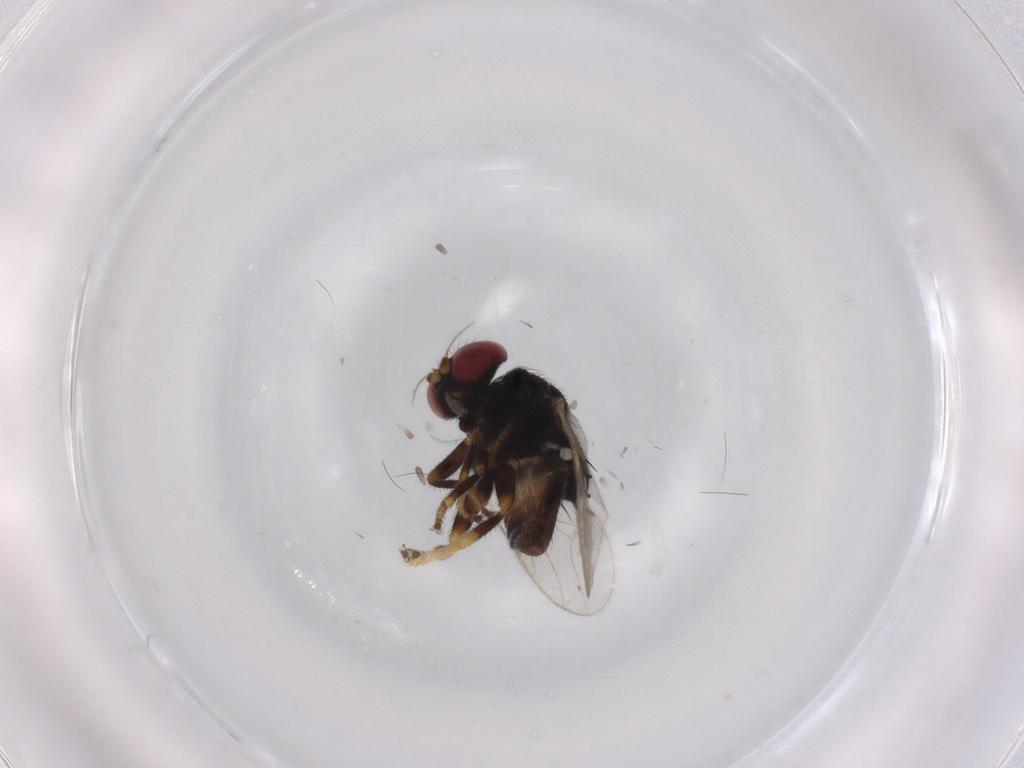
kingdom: Animalia
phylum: Arthropoda
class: Insecta
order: Diptera
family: Chloropidae
